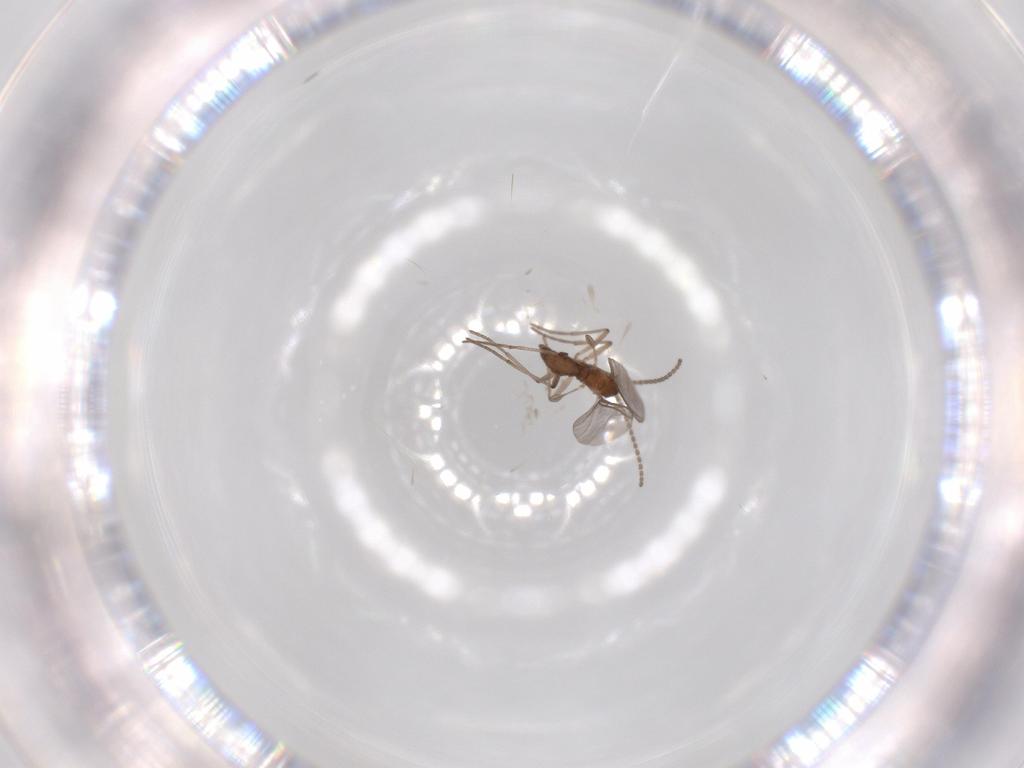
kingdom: Animalia
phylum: Arthropoda
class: Insecta
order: Diptera
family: Sciaridae
